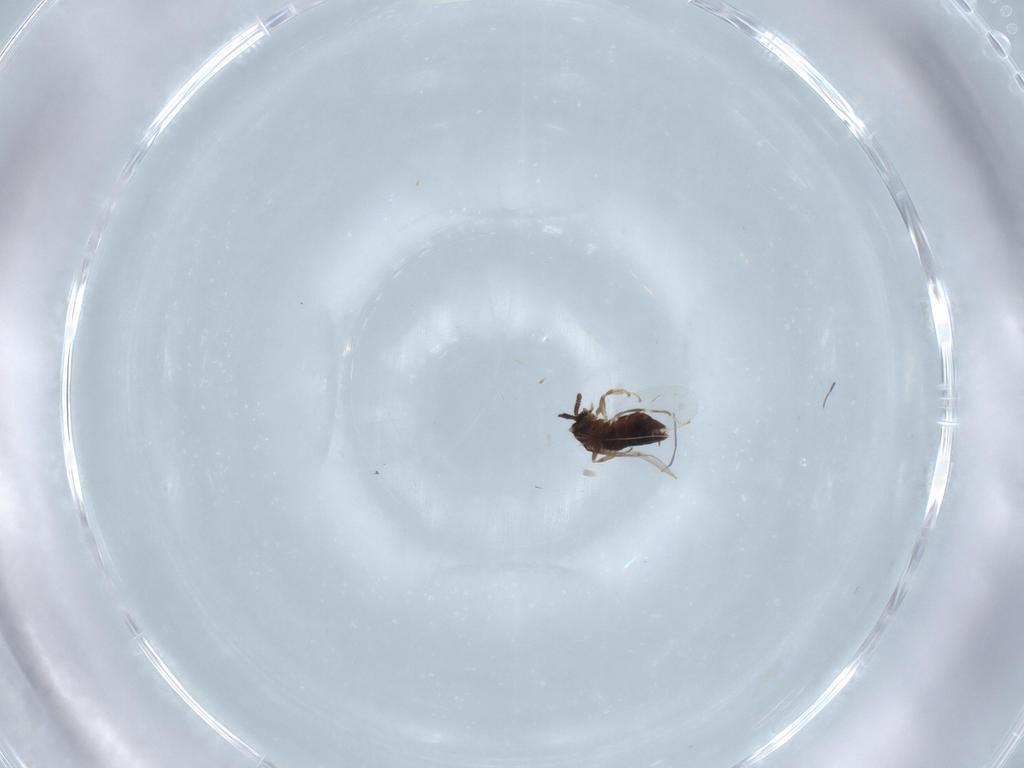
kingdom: Animalia
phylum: Arthropoda
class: Insecta
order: Diptera
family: Scatopsidae
